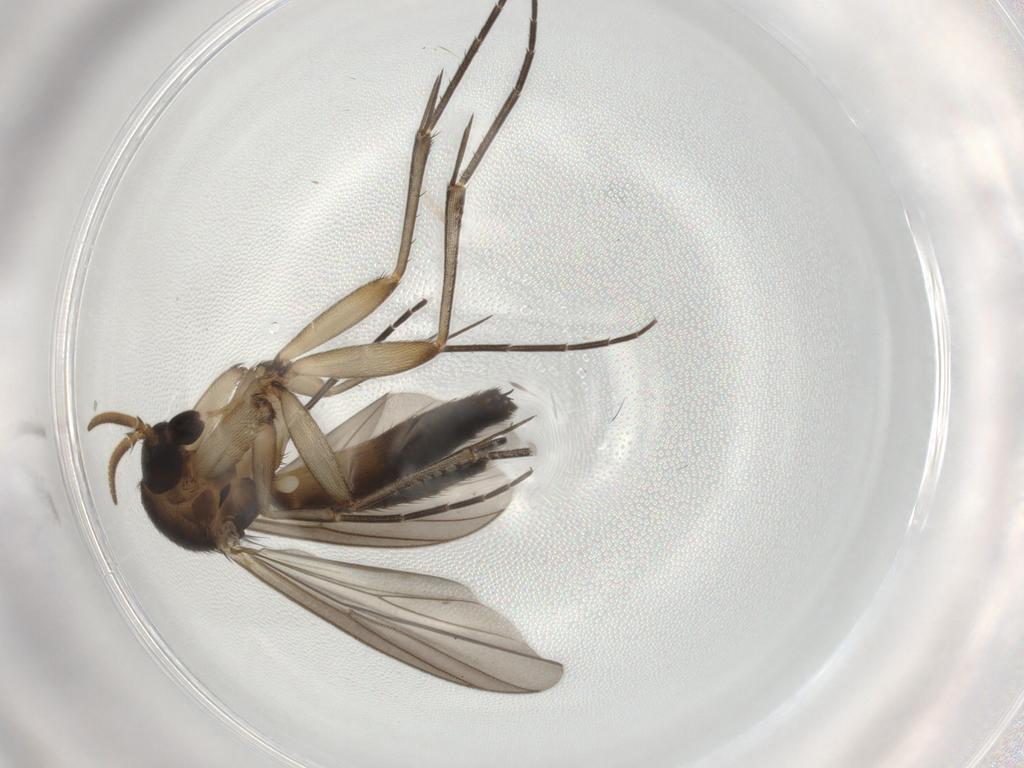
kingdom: Animalia
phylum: Arthropoda
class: Insecta
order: Diptera
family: Mycetophilidae
